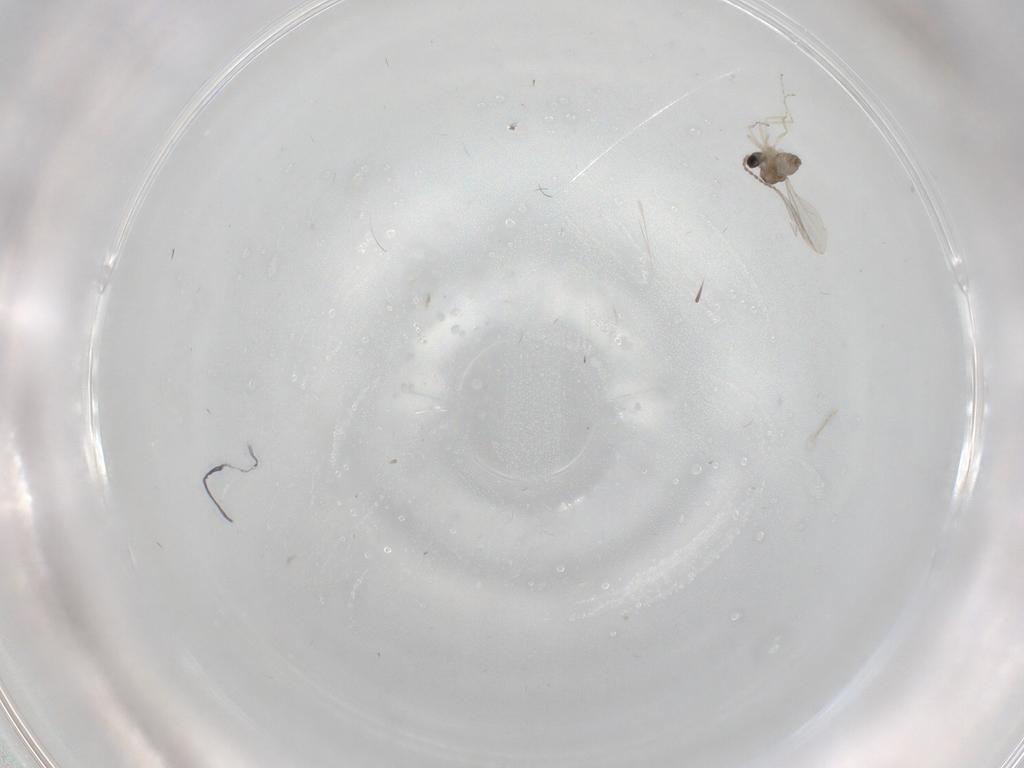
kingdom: Animalia
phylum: Arthropoda
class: Insecta
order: Diptera
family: Cecidomyiidae
